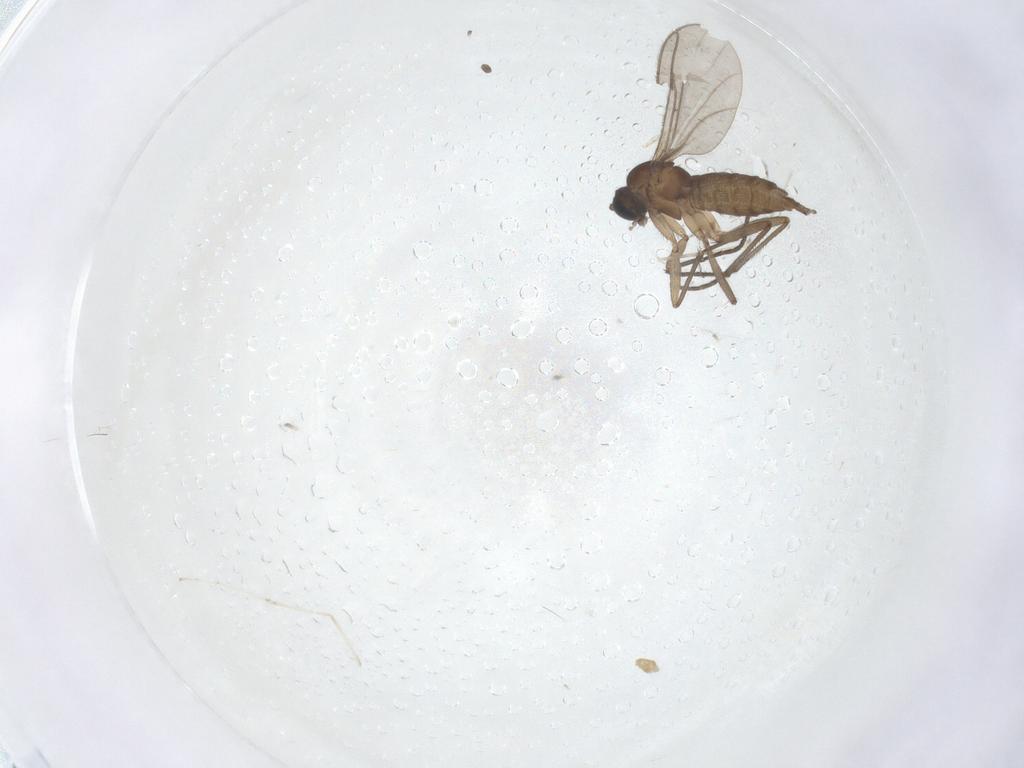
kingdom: Animalia
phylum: Arthropoda
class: Insecta
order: Diptera
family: Sciaridae
